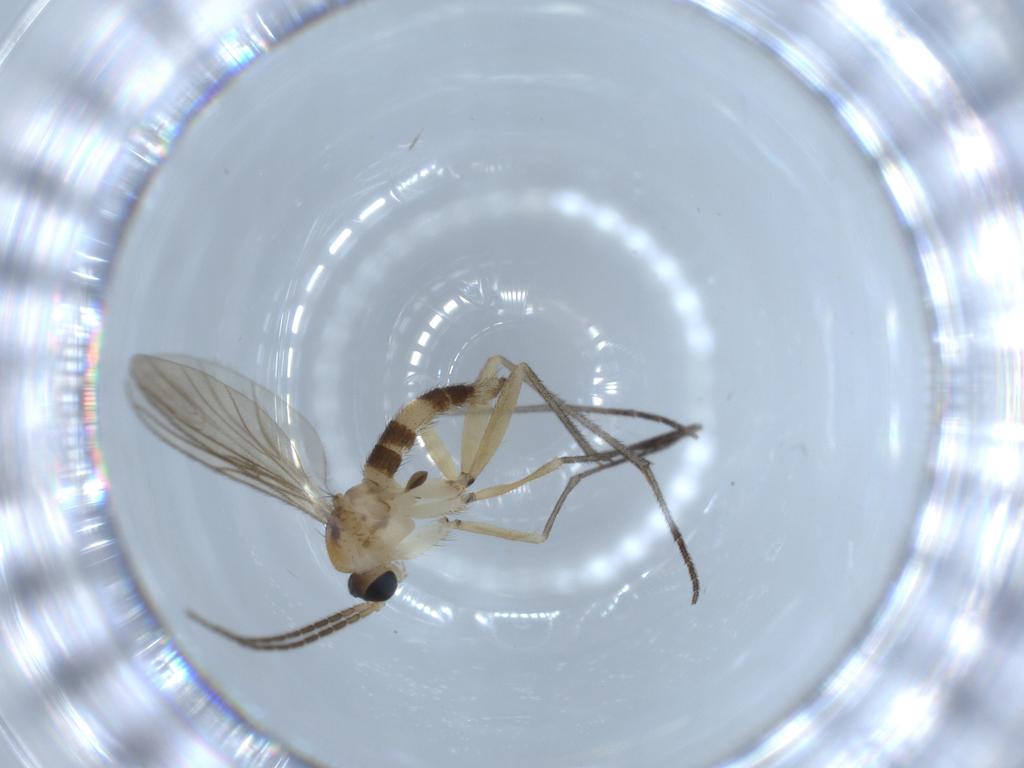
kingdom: Animalia
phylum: Arthropoda
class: Insecta
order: Diptera
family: Sciaridae
